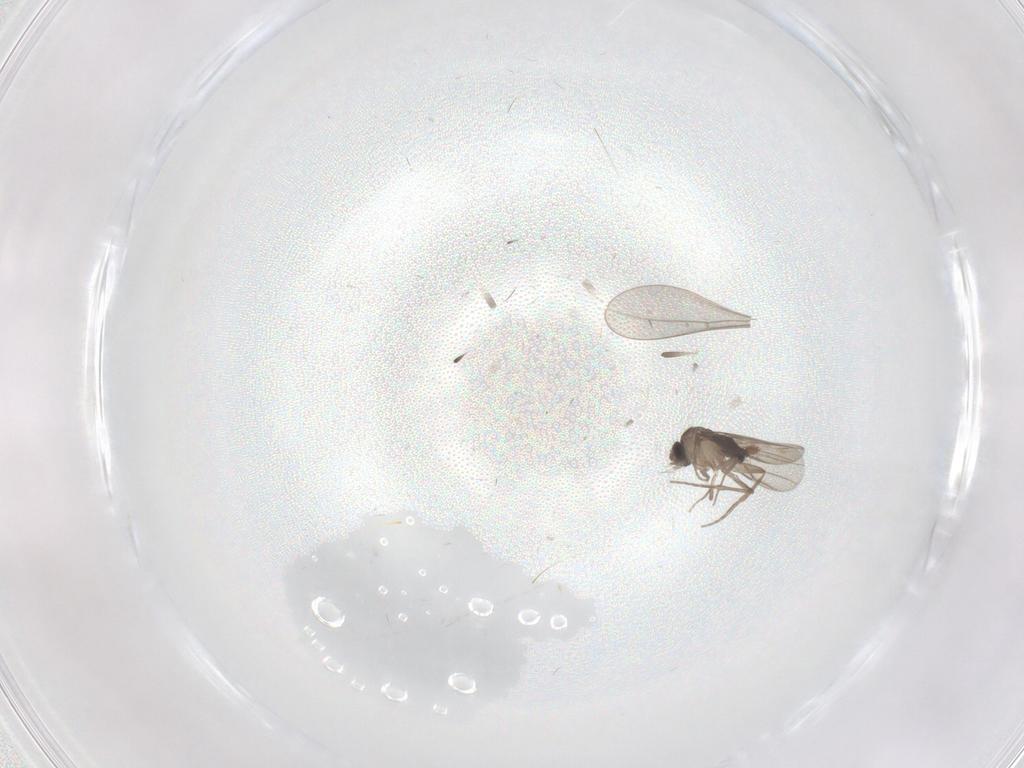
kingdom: Animalia
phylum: Arthropoda
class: Insecta
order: Diptera
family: Phoridae
